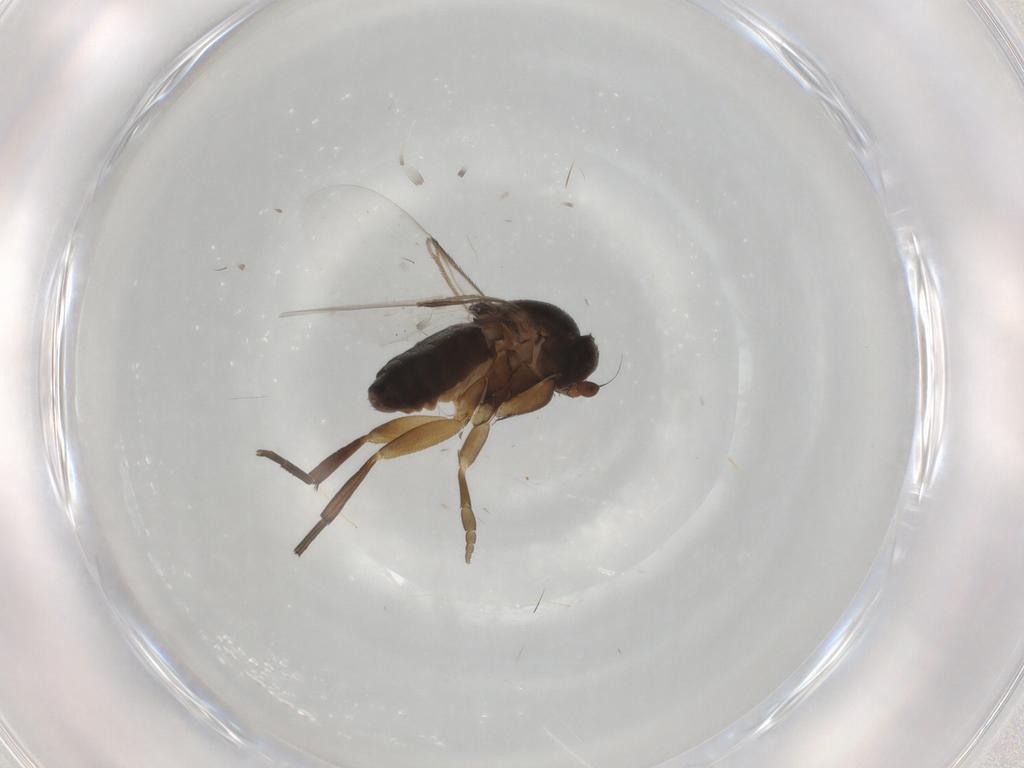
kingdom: Animalia
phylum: Arthropoda
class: Insecta
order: Diptera
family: Phoridae
